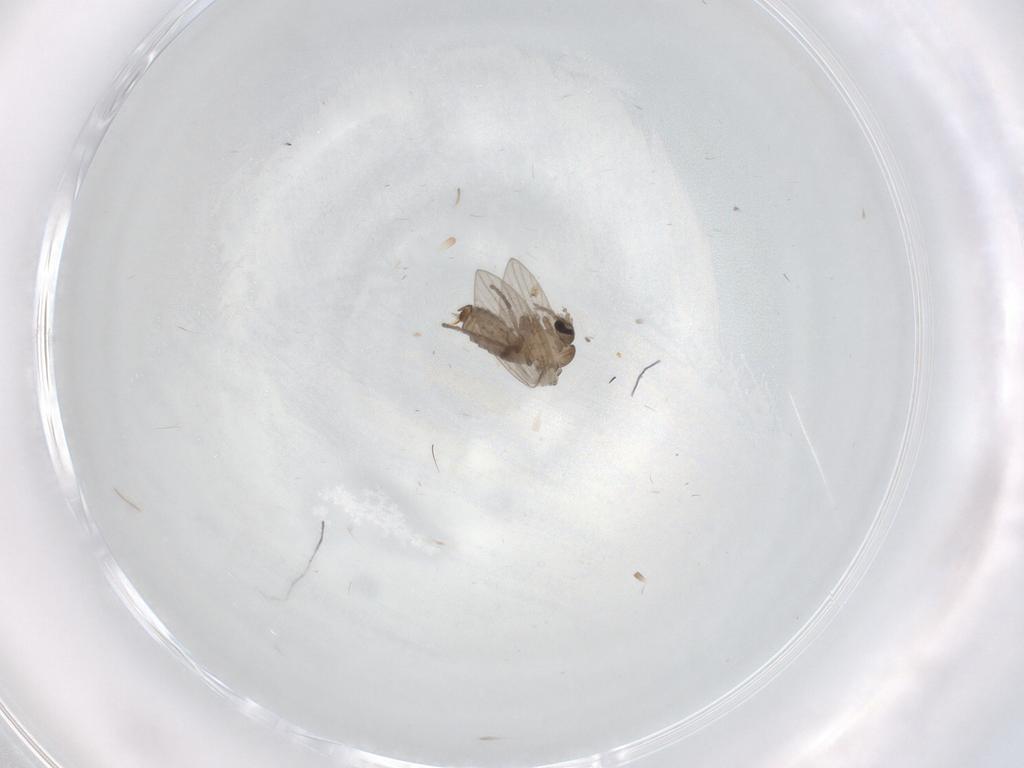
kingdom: Animalia
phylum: Arthropoda
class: Insecta
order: Diptera
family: Psychodidae
